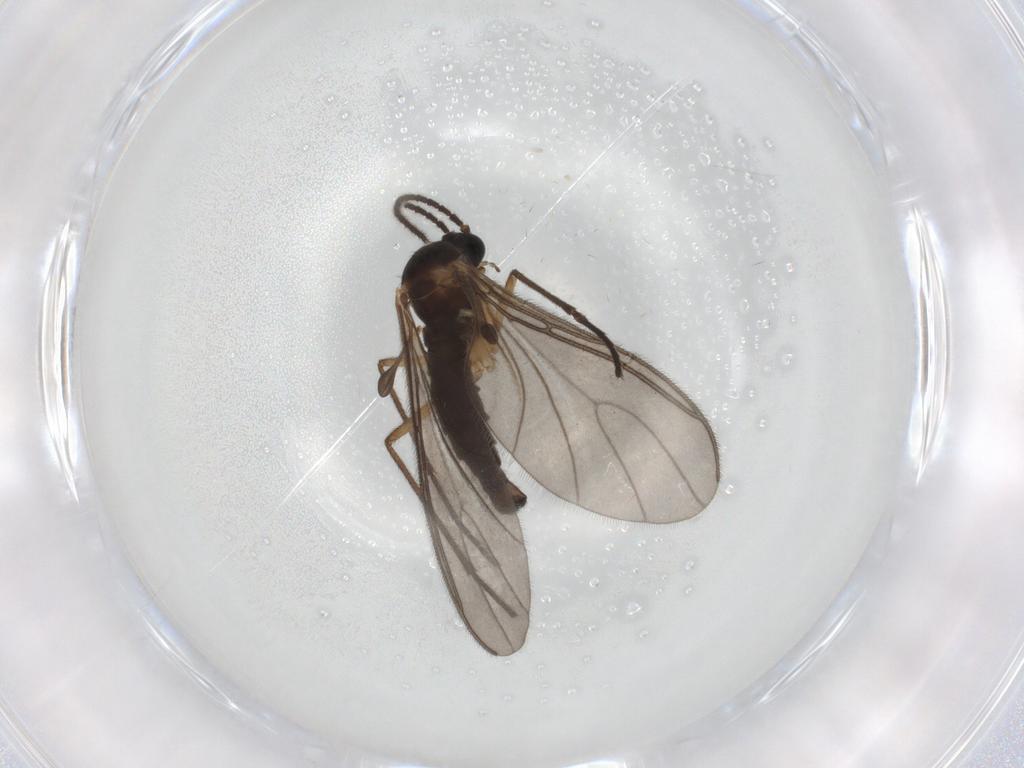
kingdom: Animalia
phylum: Arthropoda
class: Insecta
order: Diptera
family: Sciaridae
